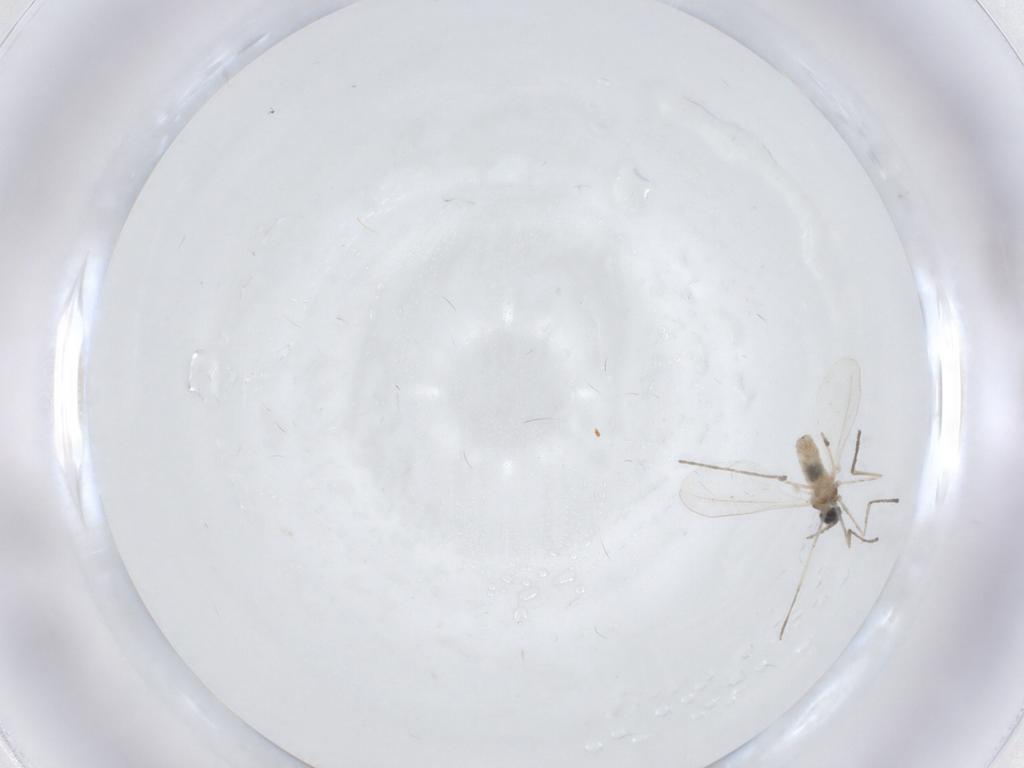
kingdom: Animalia
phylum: Arthropoda
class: Insecta
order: Diptera
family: Cecidomyiidae
